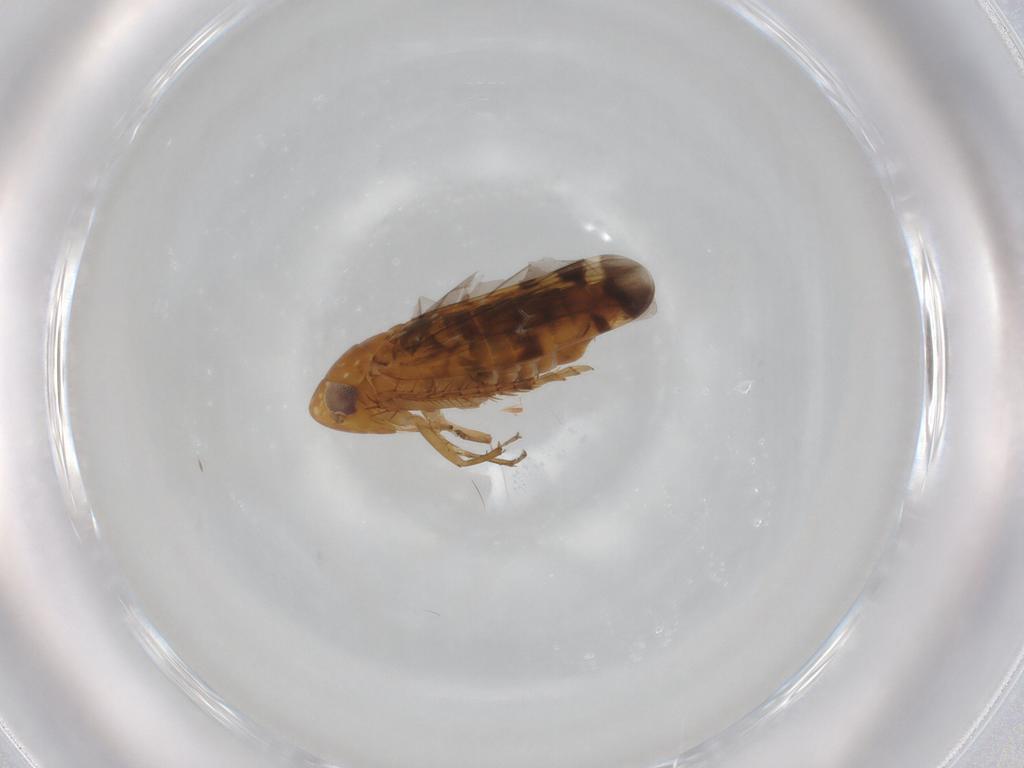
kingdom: Animalia
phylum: Arthropoda
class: Insecta
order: Hemiptera
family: Cicadellidae
